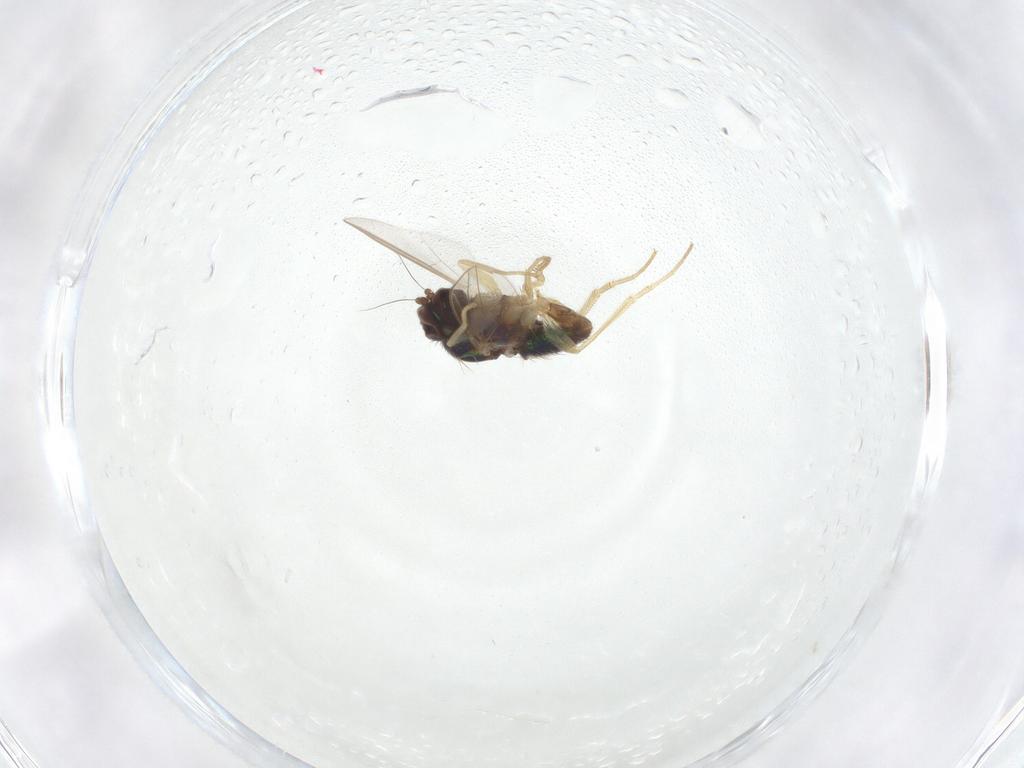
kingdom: Animalia
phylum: Arthropoda
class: Insecta
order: Diptera
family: Dolichopodidae
